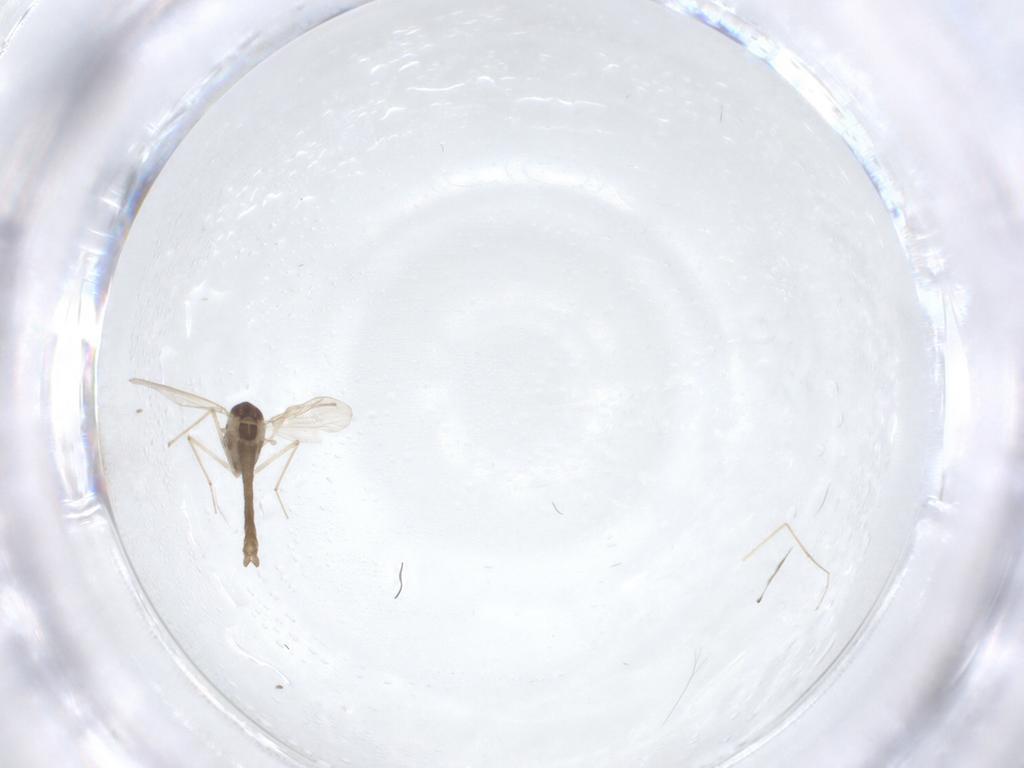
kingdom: Animalia
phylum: Arthropoda
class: Insecta
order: Diptera
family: Chironomidae
